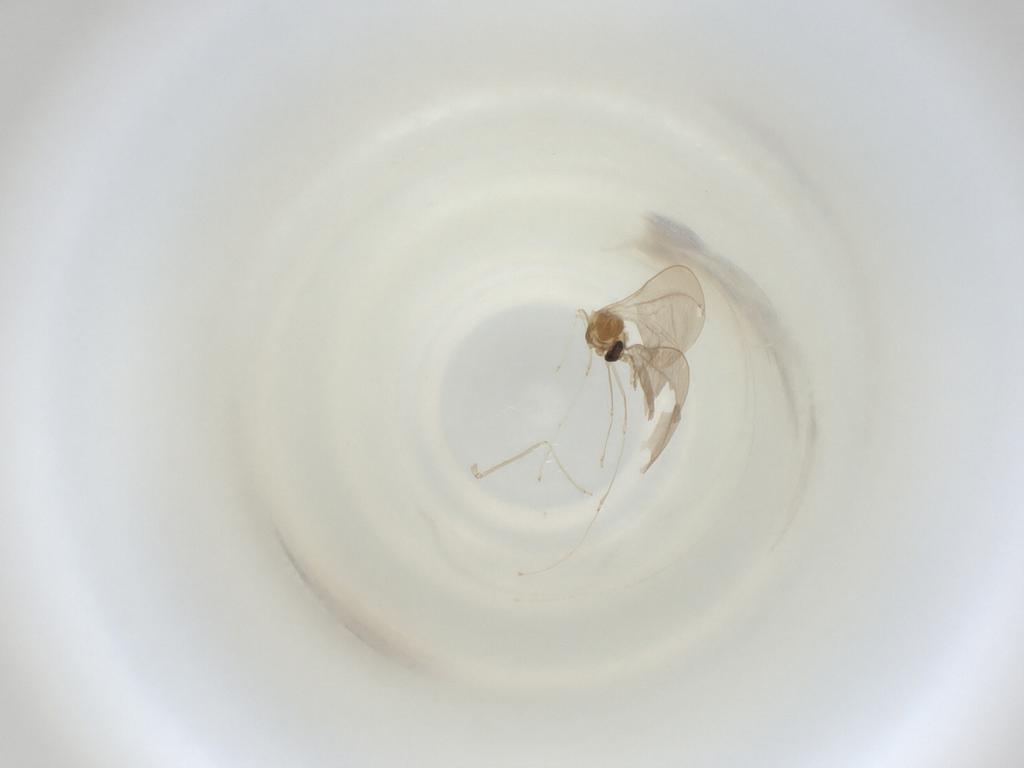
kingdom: Animalia
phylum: Arthropoda
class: Insecta
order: Diptera
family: Cecidomyiidae
